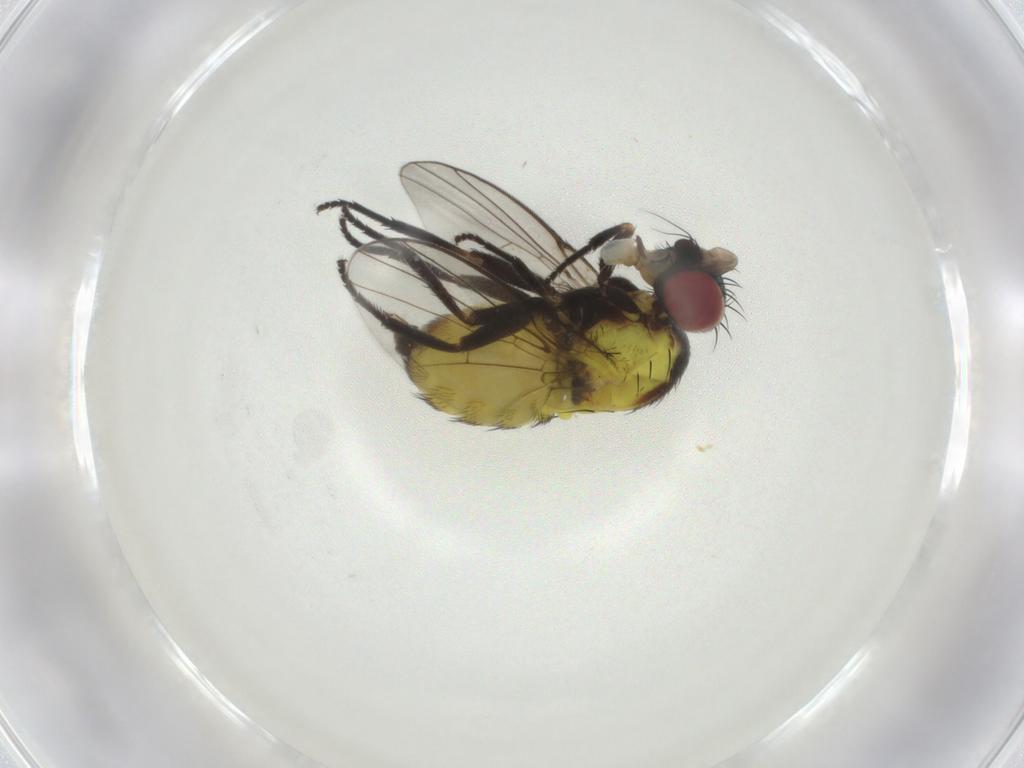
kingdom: Animalia
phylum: Arthropoda
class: Insecta
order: Diptera
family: Agromyzidae
